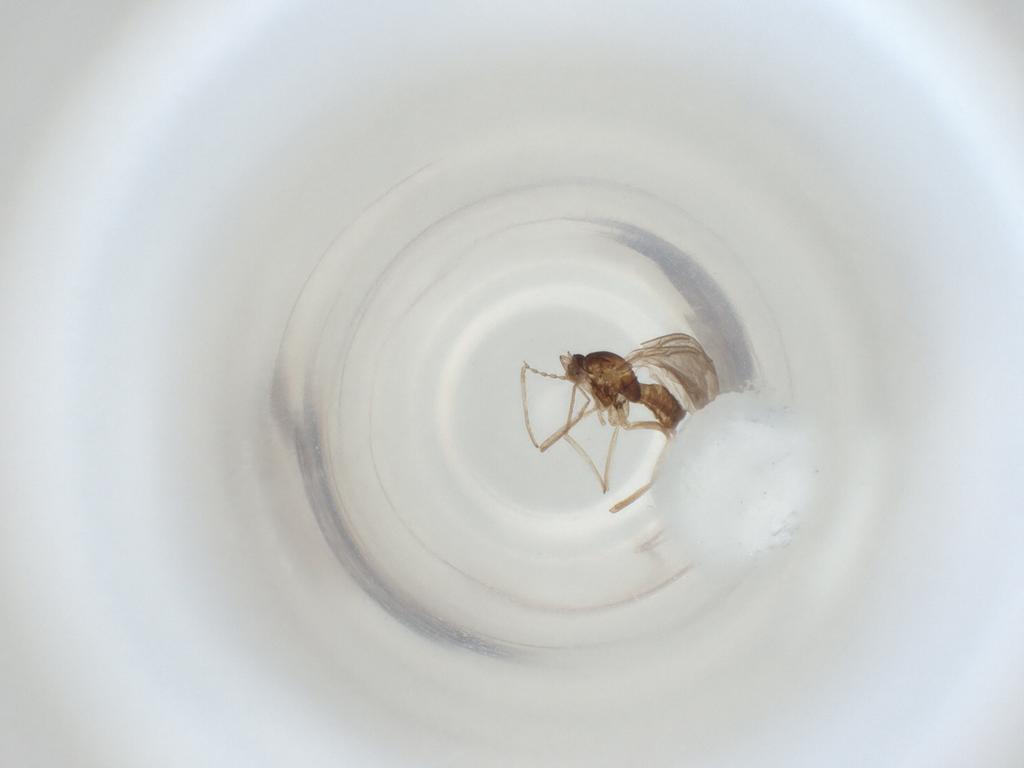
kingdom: Animalia
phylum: Arthropoda
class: Insecta
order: Diptera
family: Cecidomyiidae
